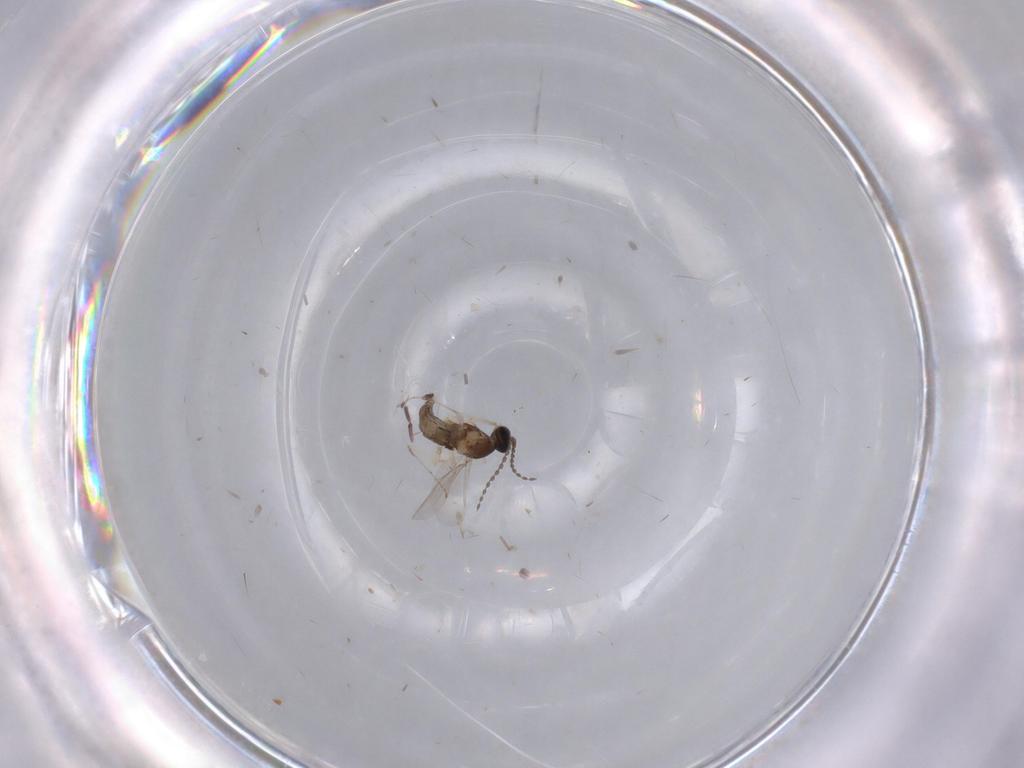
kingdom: Animalia
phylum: Arthropoda
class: Insecta
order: Diptera
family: Cecidomyiidae
